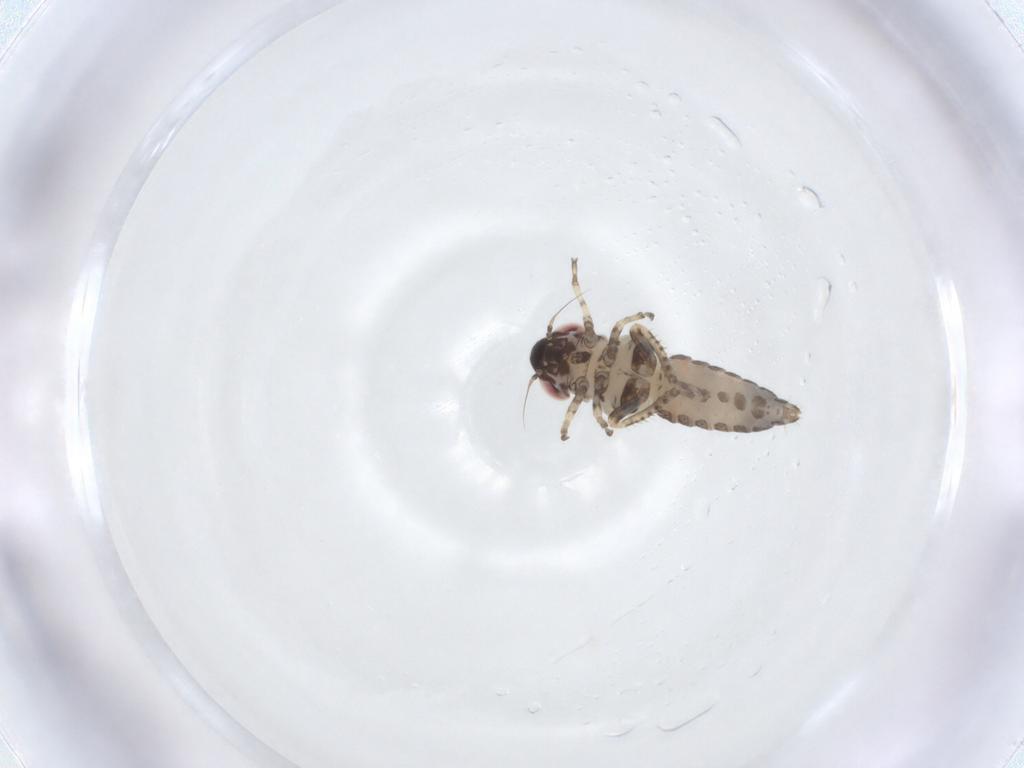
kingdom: Animalia
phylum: Arthropoda
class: Insecta
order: Hemiptera
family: Cicadellidae
